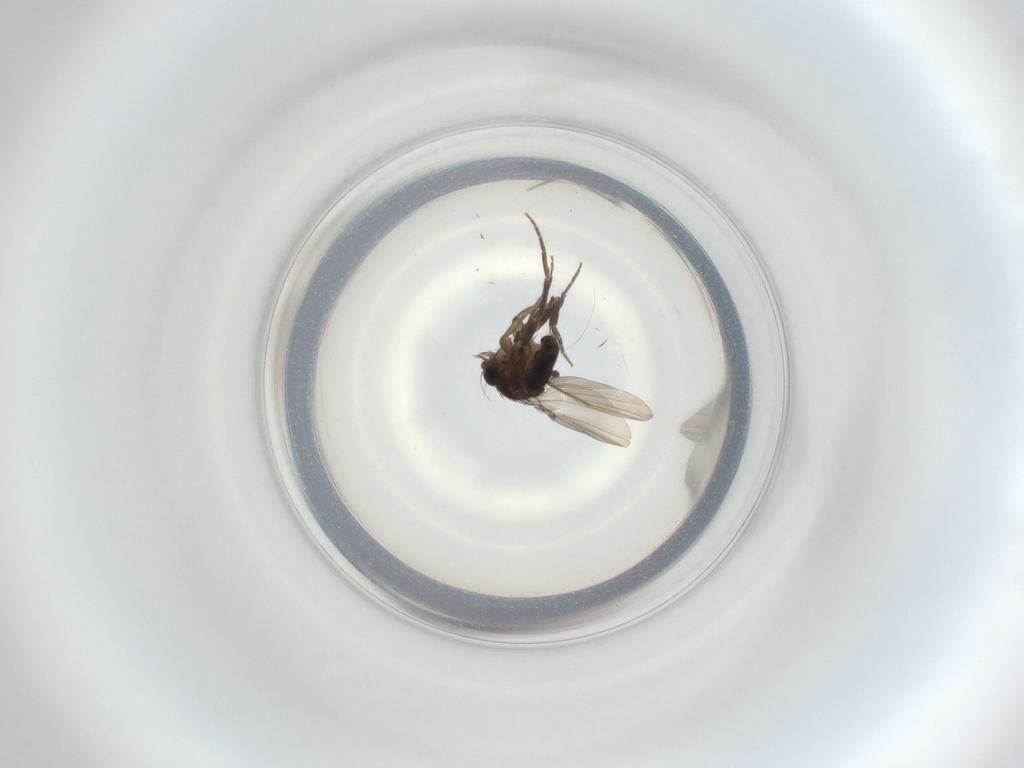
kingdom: Animalia
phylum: Arthropoda
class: Insecta
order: Diptera
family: Phoridae
